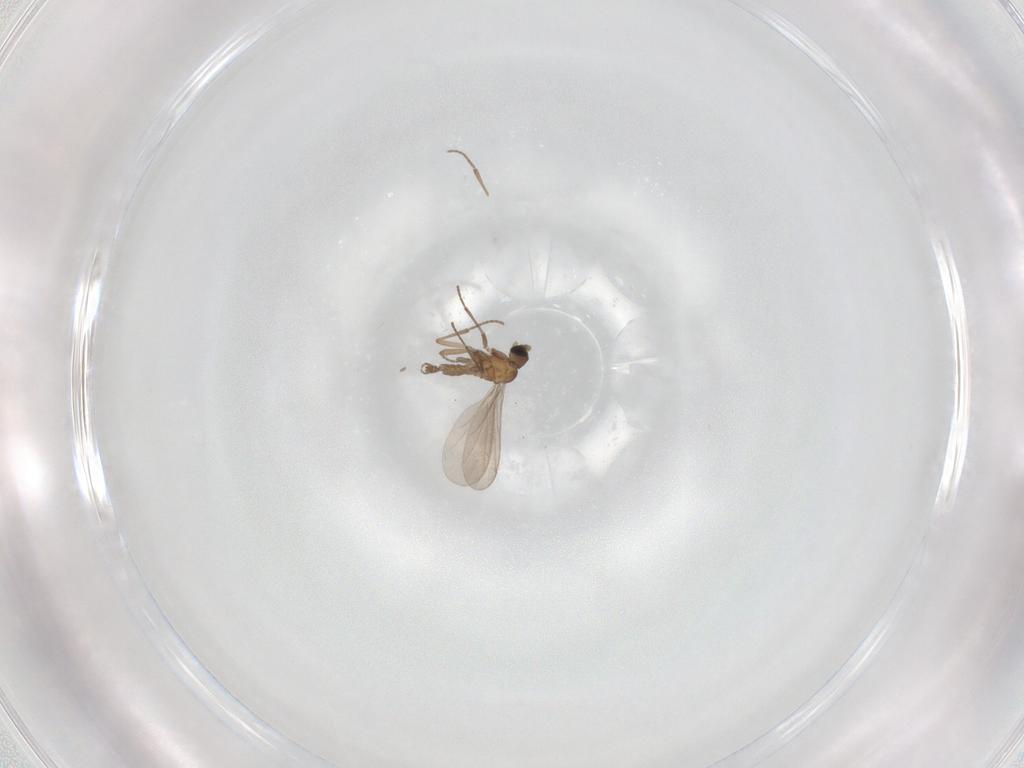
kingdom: Animalia
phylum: Arthropoda
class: Insecta
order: Diptera
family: Sciaridae
